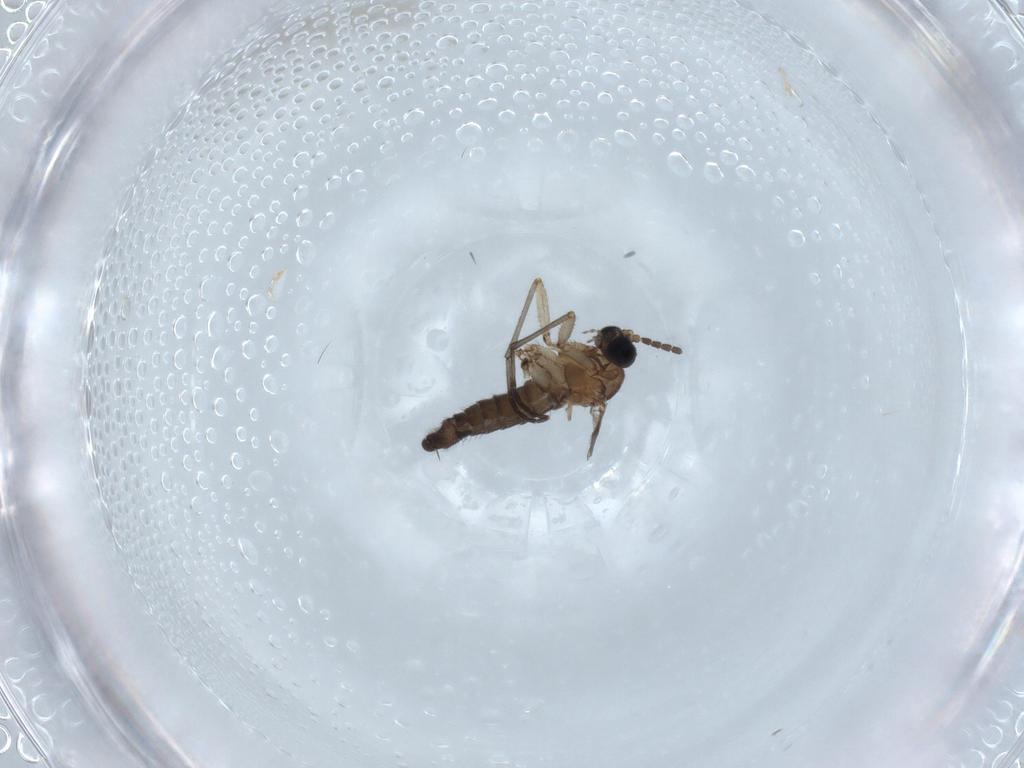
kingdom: Animalia
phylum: Arthropoda
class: Insecta
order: Diptera
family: Sciaridae
